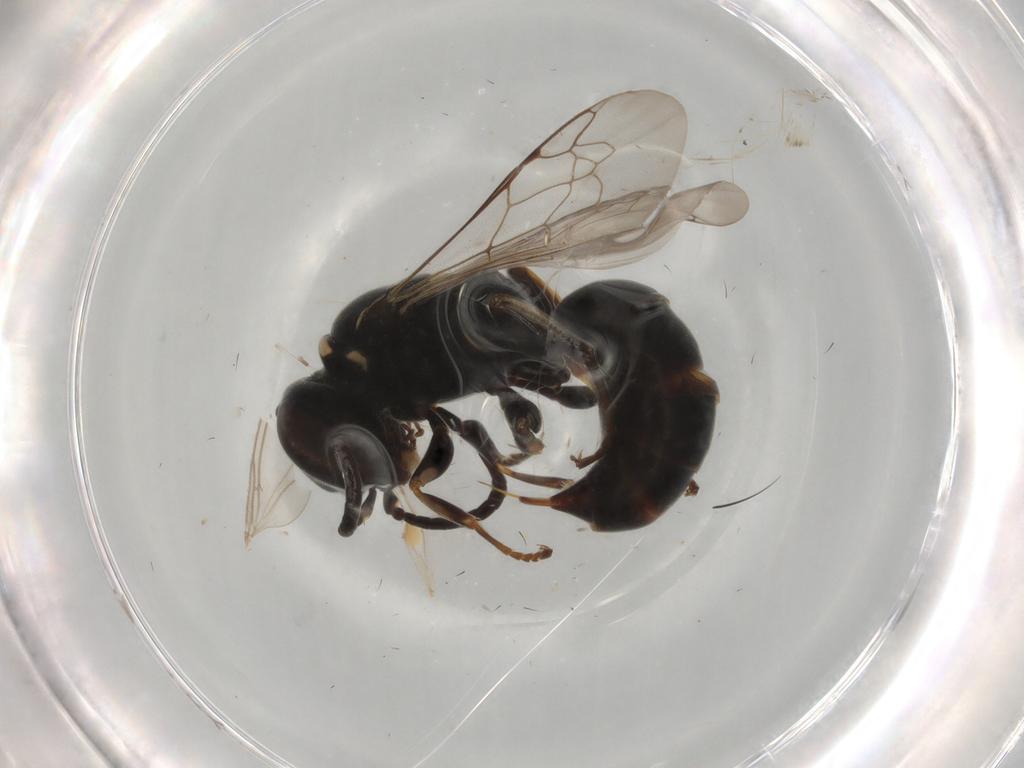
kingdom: Animalia
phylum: Arthropoda
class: Insecta
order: Hymenoptera
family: Crabronidae
